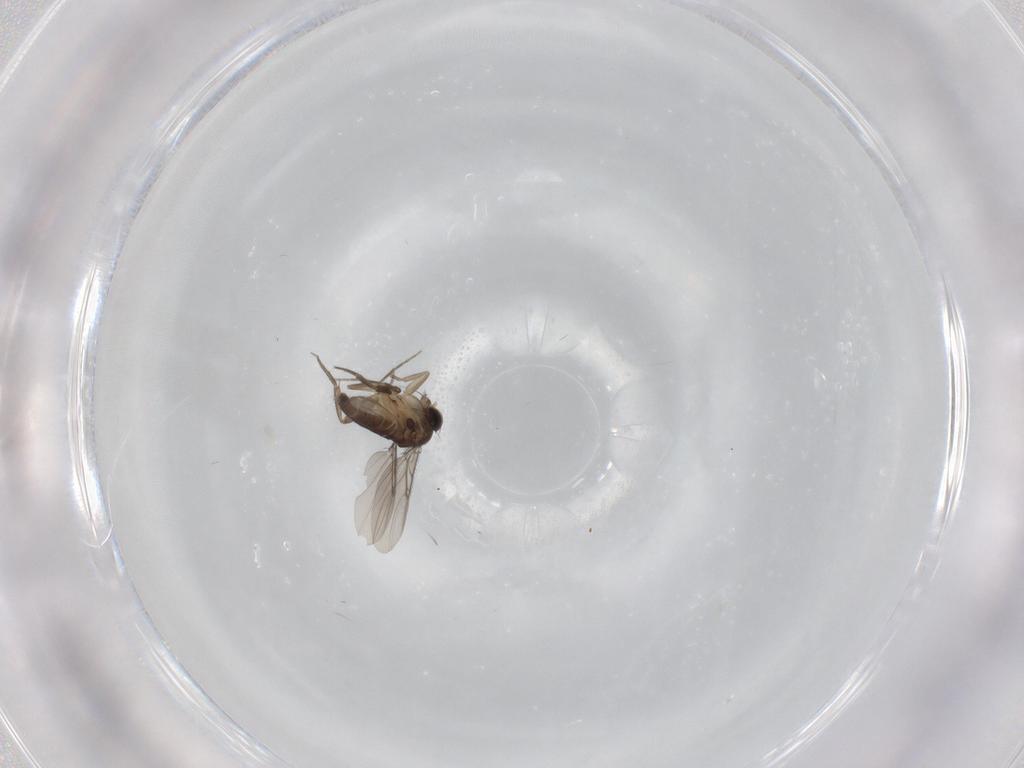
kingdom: Animalia
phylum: Arthropoda
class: Insecta
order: Diptera
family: Phoridae
